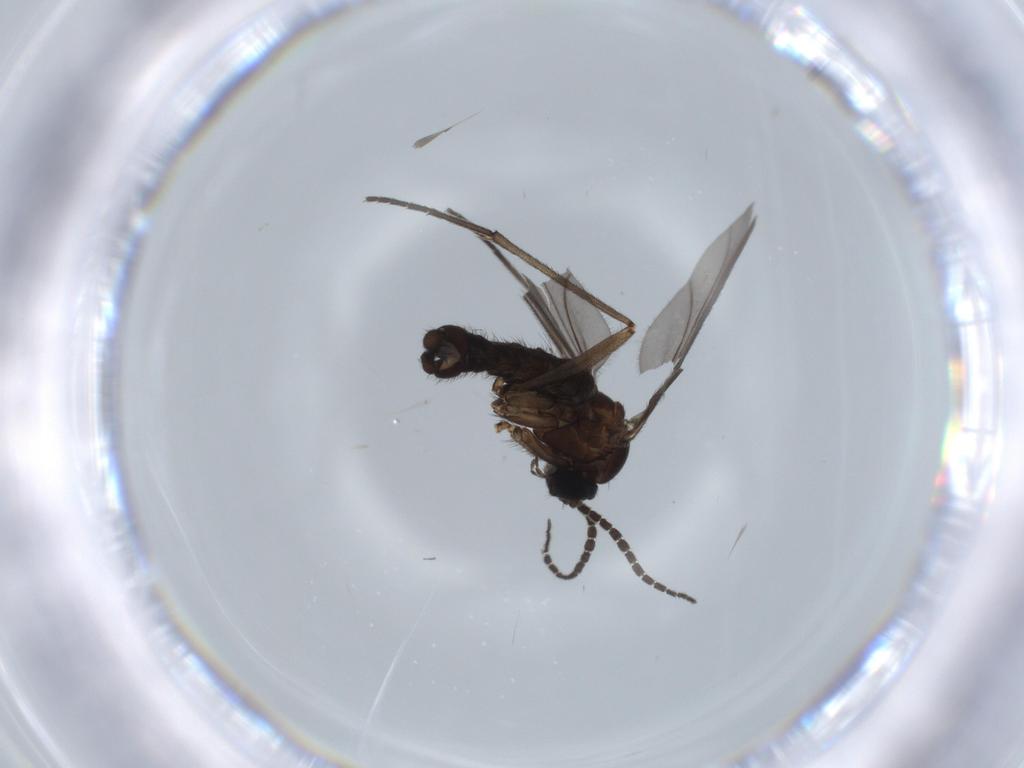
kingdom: Animalia
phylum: Arthropoda
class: Insecta
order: Diptera
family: Sciaridae
